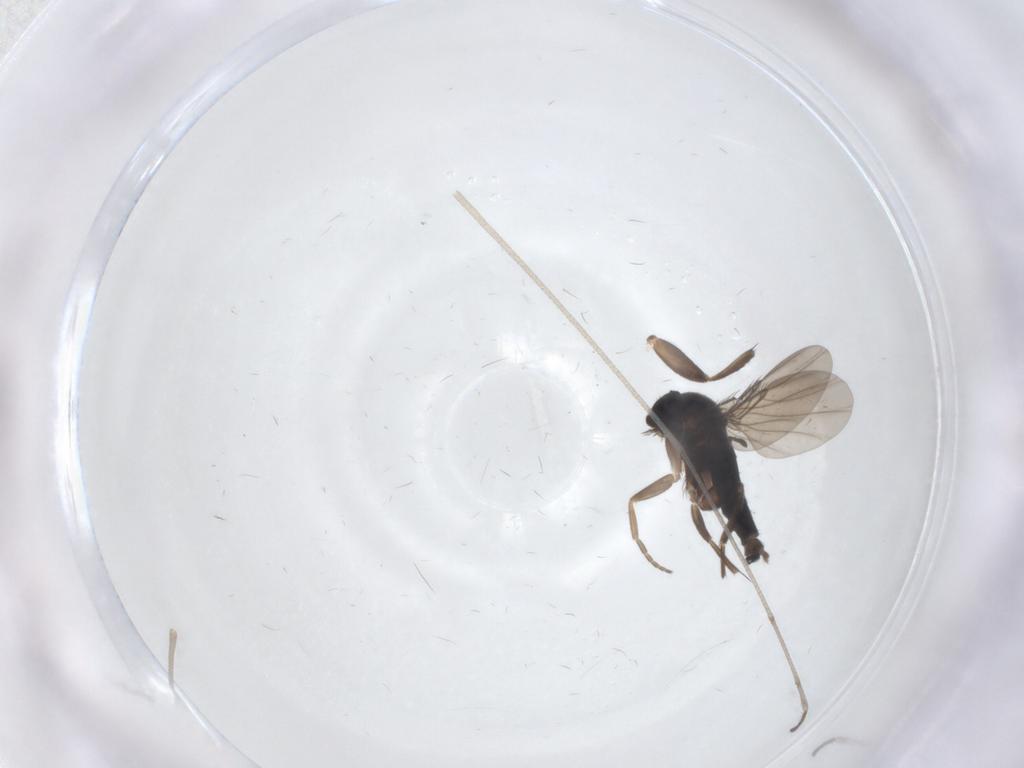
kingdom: Animalia
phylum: Arthropoda
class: Insecta
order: Diptera
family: Phoridae
